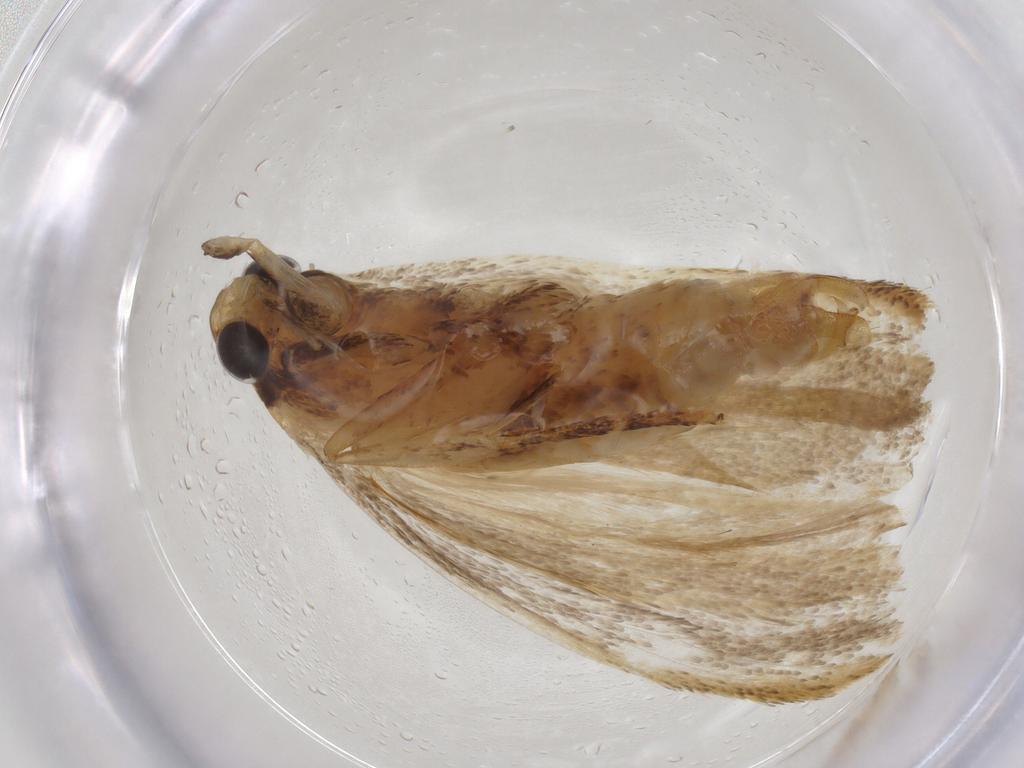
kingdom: Animalia
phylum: Arthropoda
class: Insecta
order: Lepidoptera
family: Lecithoceridae
